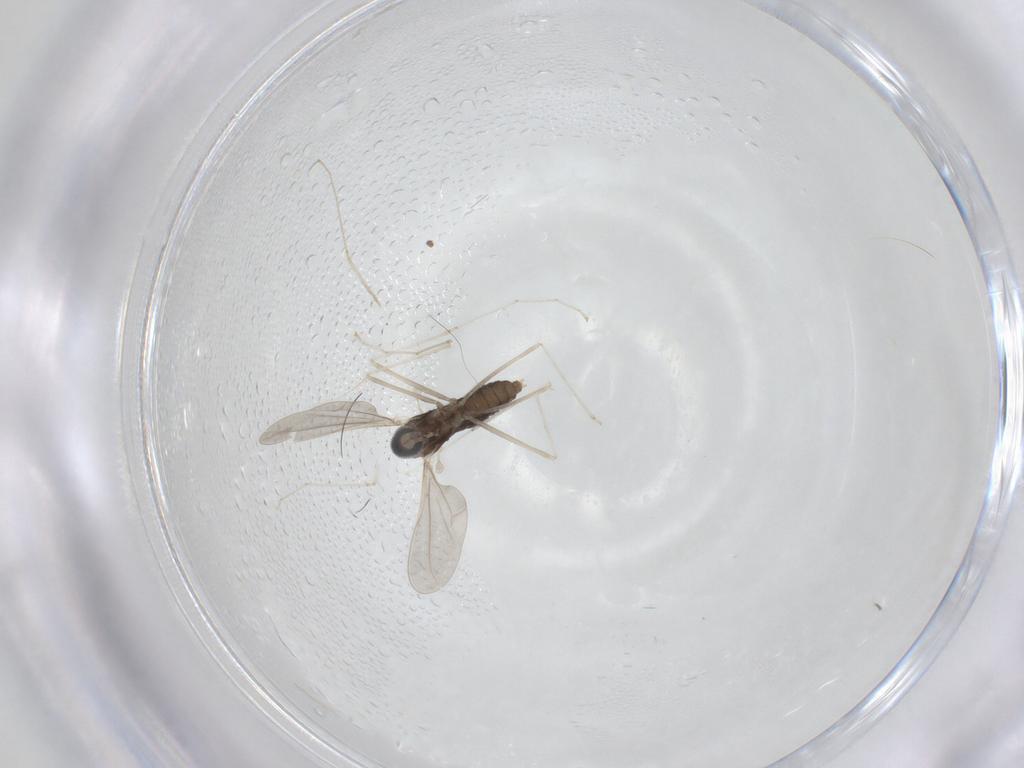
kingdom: Animalia
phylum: Arthropoda
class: Insecta
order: Diptera
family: Cecidomyiidae
